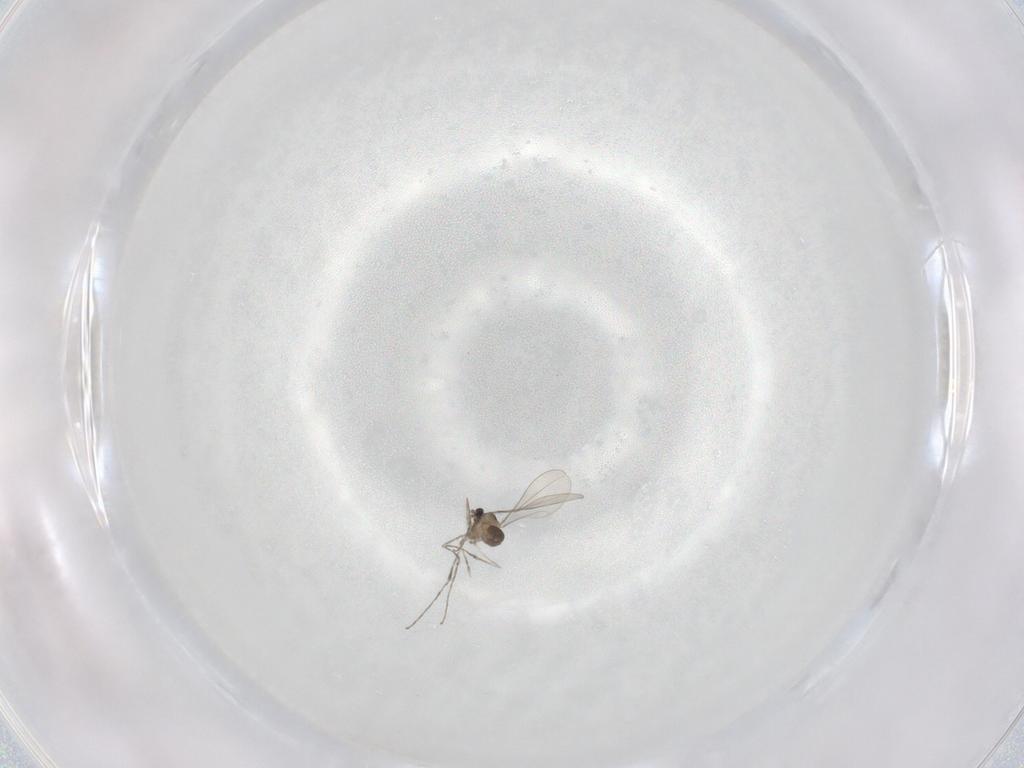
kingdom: Animalia
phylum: Arthropoda
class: Insecta
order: Diptera
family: Cecidomyiidae
